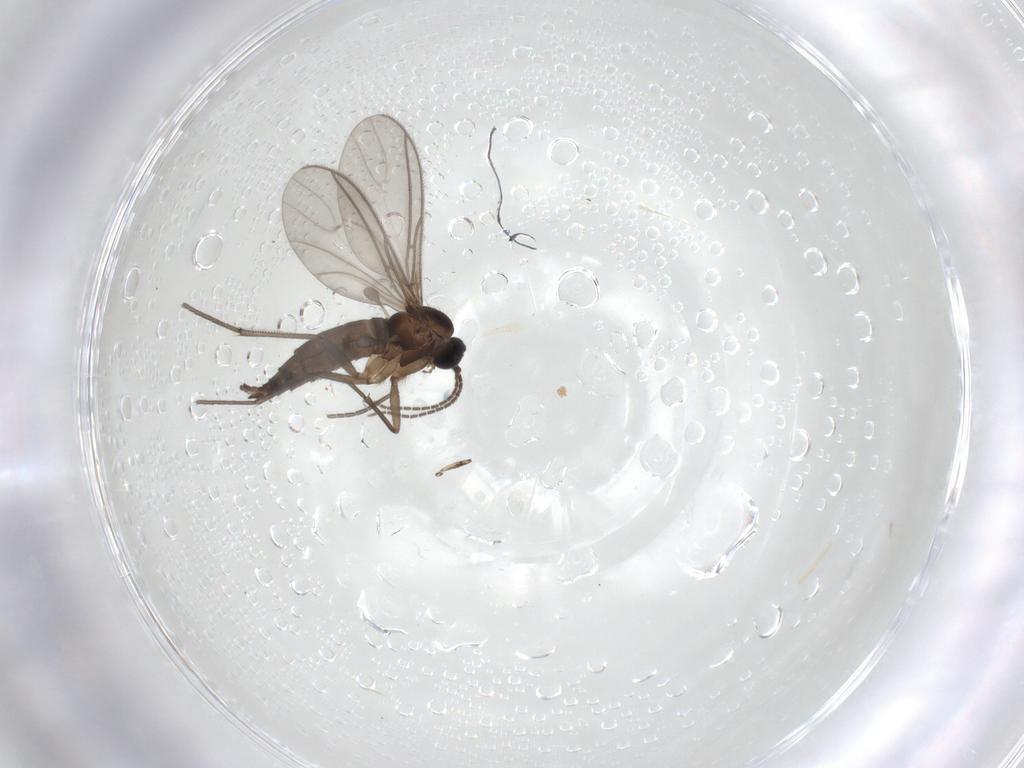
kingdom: Animalia
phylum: Arthropoda
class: Insecta
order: Diptera
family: Sciaridae
